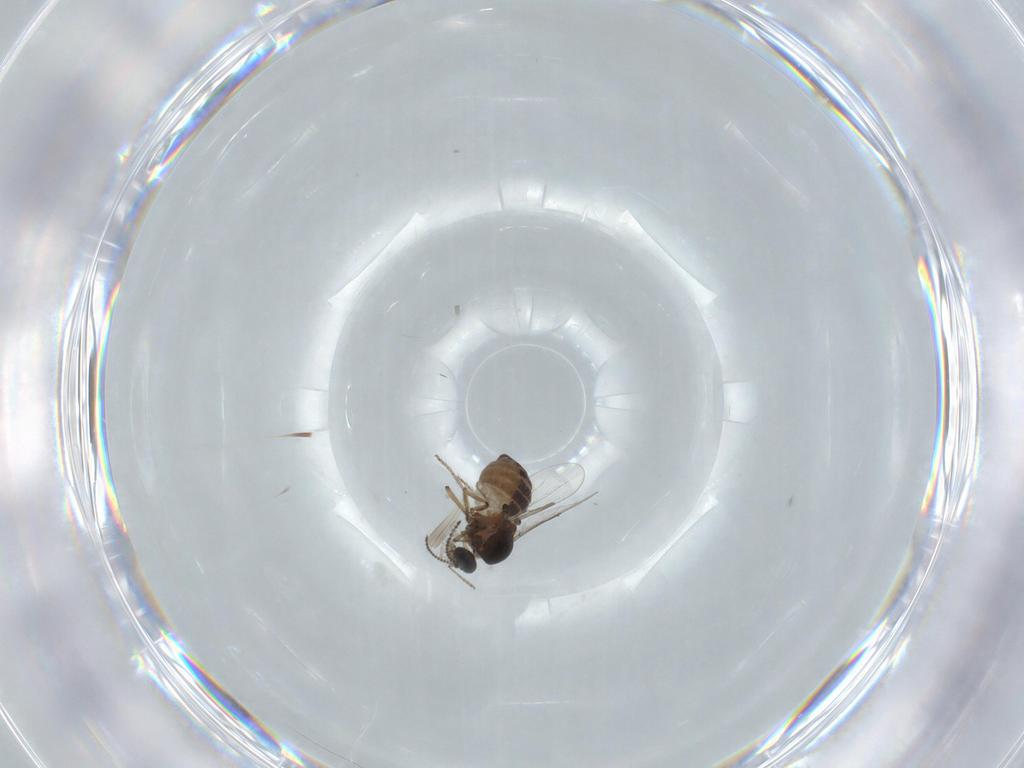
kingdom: Animalia
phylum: Arthropoda
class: Insecta
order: Diptera
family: Ceratopogonidae
